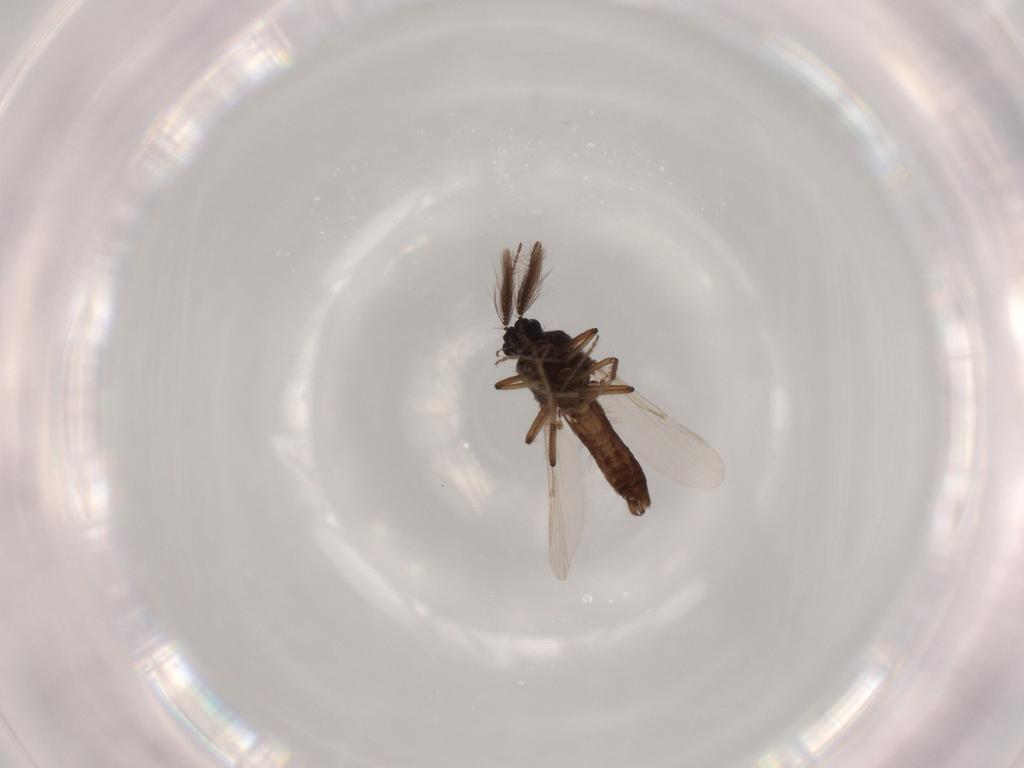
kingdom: Animalia
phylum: Arthropoda
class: Insecta
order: Diptera
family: Chironomidae
